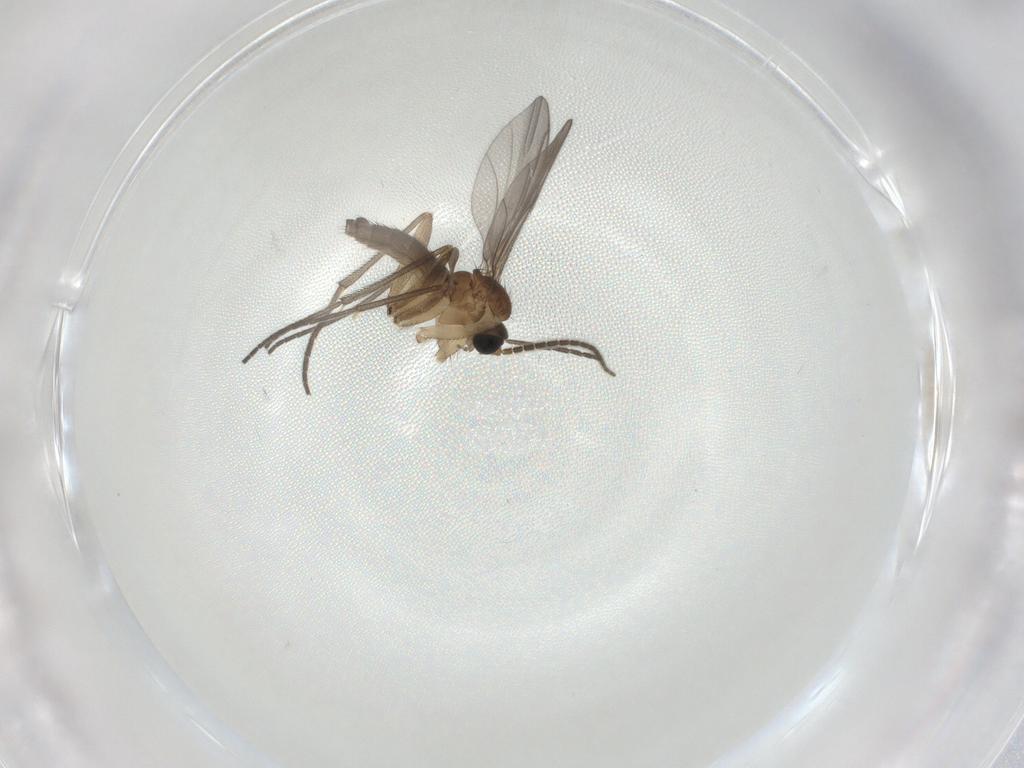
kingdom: Animalia
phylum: Arthropoda
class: Insecta
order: Diptera
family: Sciaridae
